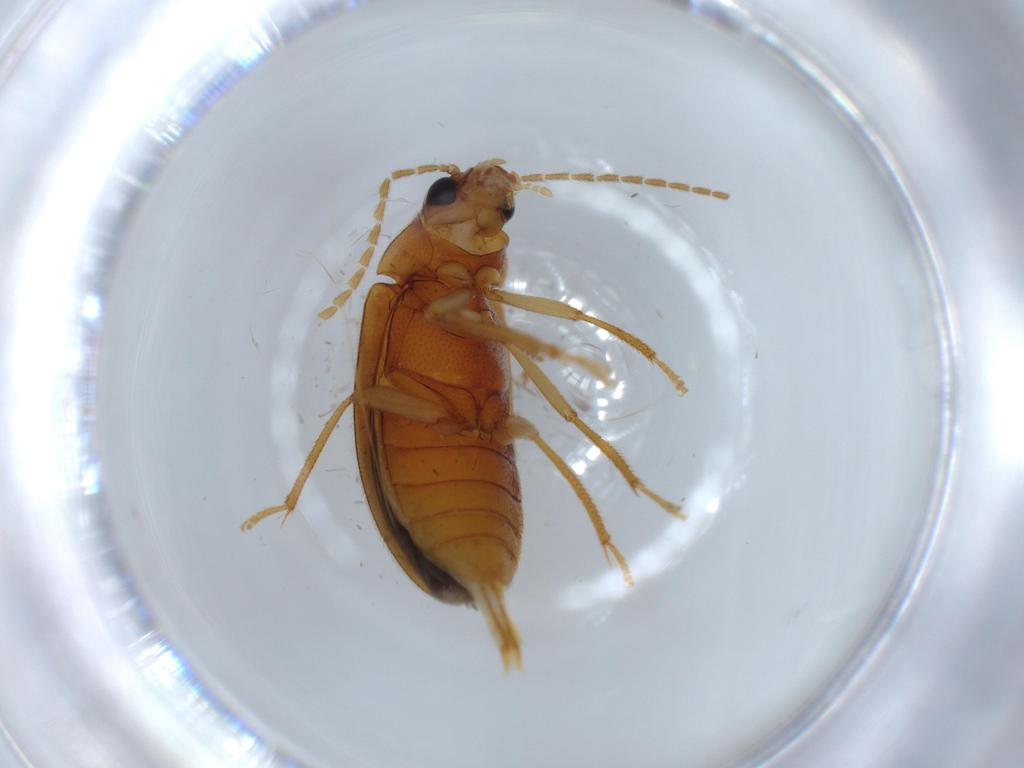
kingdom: Animalia
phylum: Arthropoda
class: Insecta
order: Coleoptera
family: Ptilodactylidae
